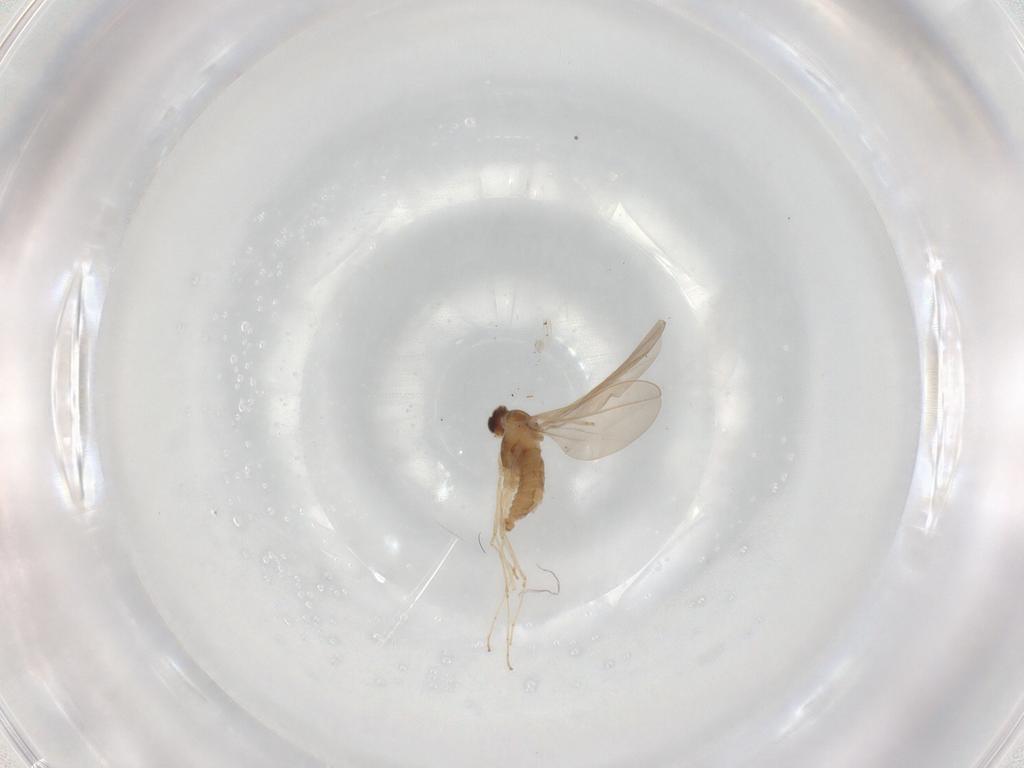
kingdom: Animalia
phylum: Arthropoda
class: Insecta
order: Diptera
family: Cecidomyiidae
